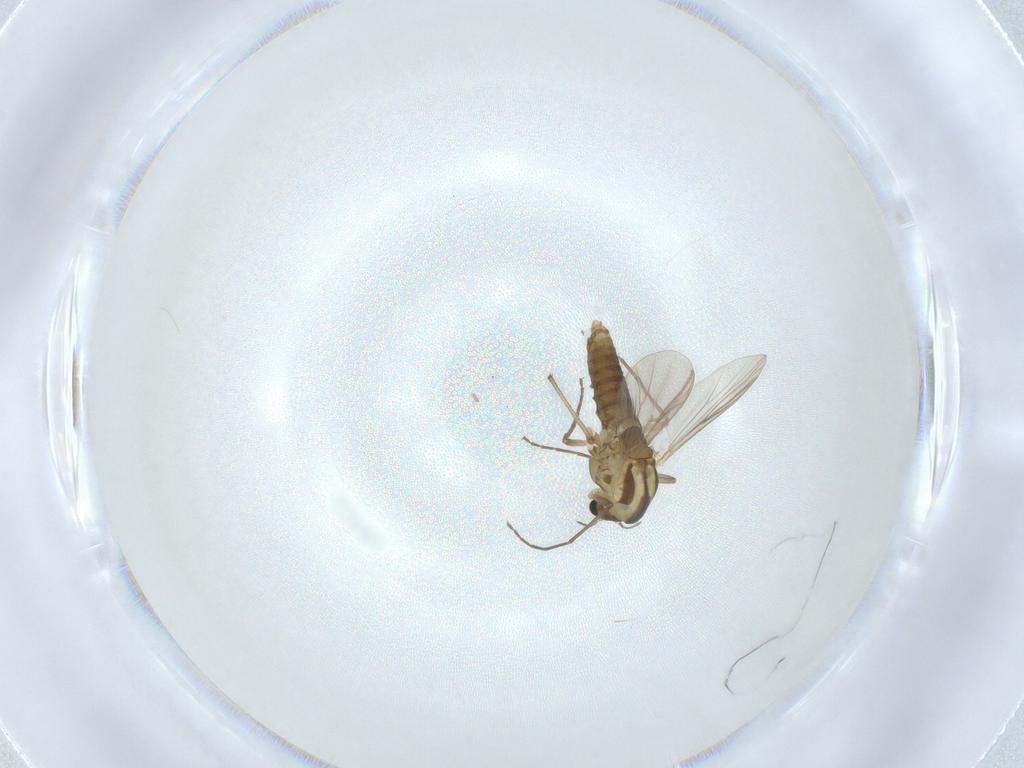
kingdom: Animalia
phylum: Arthropoda
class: Insecta
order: Diptera
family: Chironomidae
